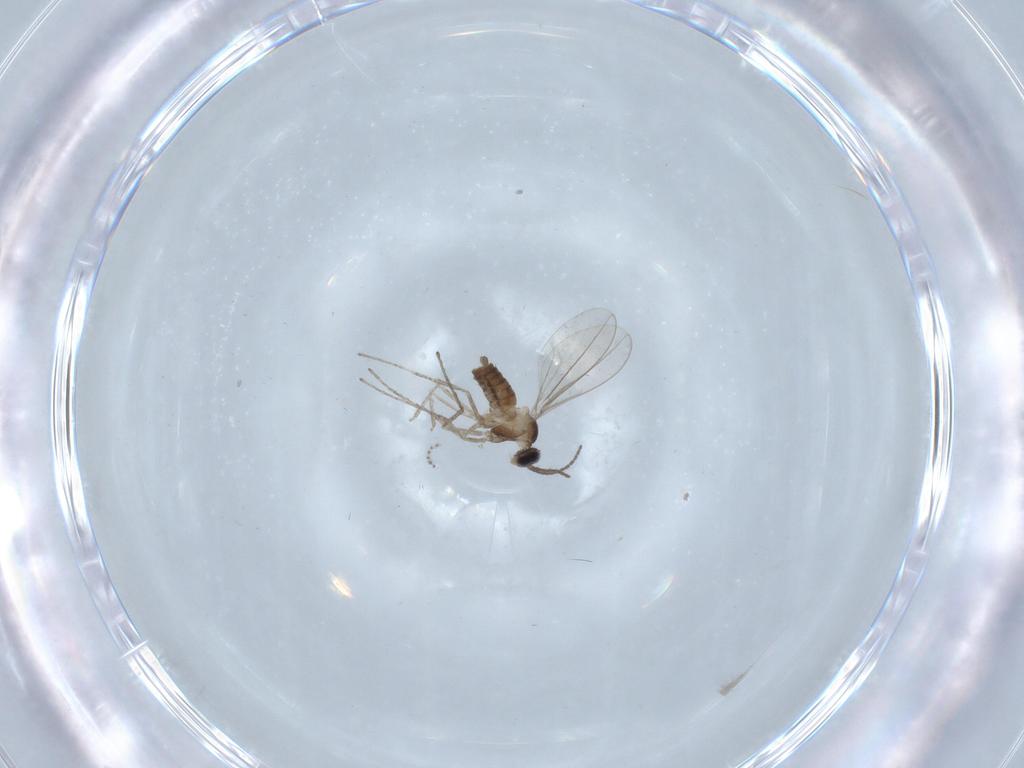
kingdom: Animalia
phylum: Arthropoda
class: Insecta
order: Diptera
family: Cecidomyiidae
